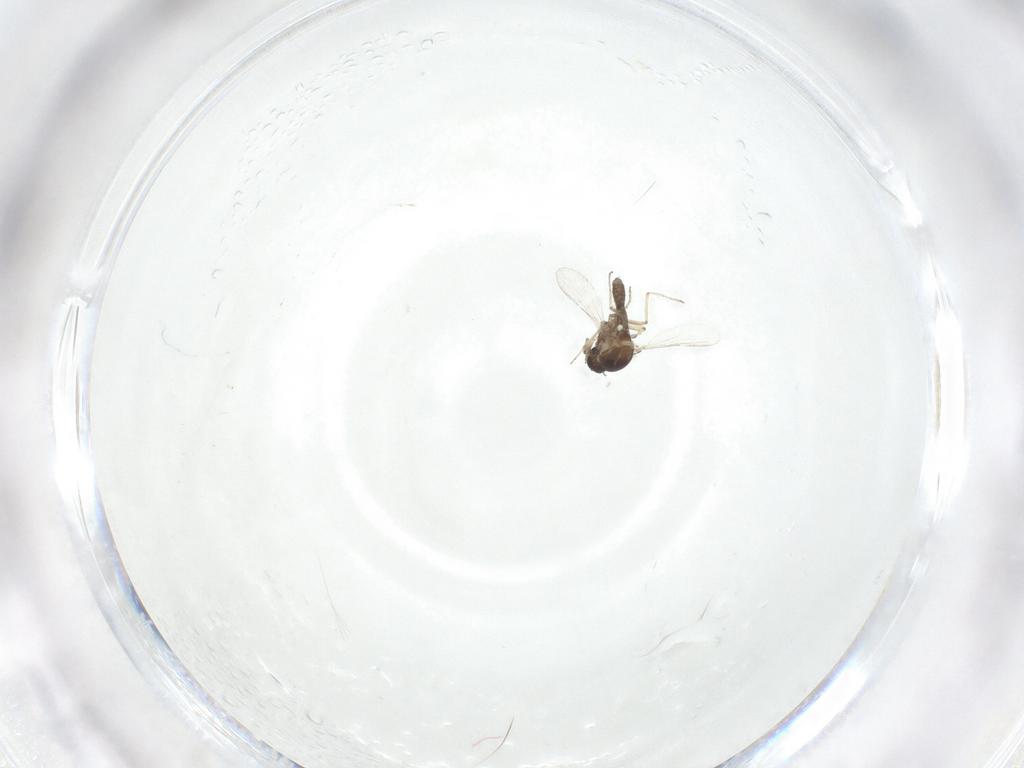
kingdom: Animalia
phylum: Arthropoda
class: Insecta
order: Diptera
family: Ceratopogonidae
